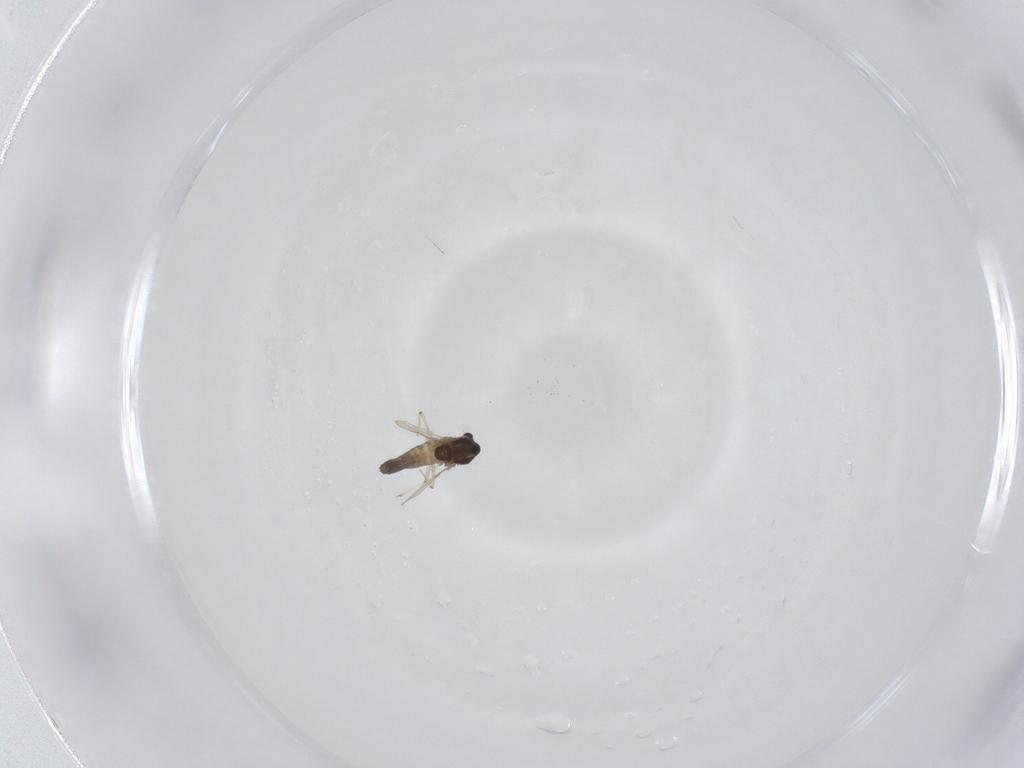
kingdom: Animalia
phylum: Arthropoda
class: Insecta
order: Diptera
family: Chironomidae
